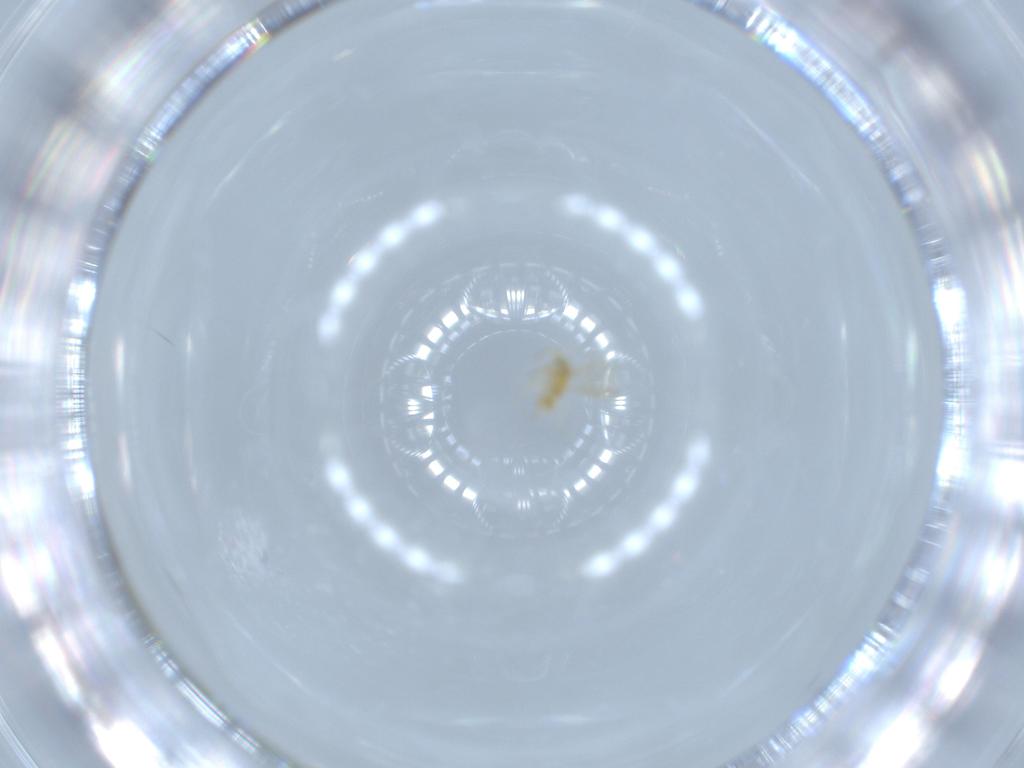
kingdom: Animalia
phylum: Arthropoda
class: Insecta
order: Hymenoptera
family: Aphelinidae
